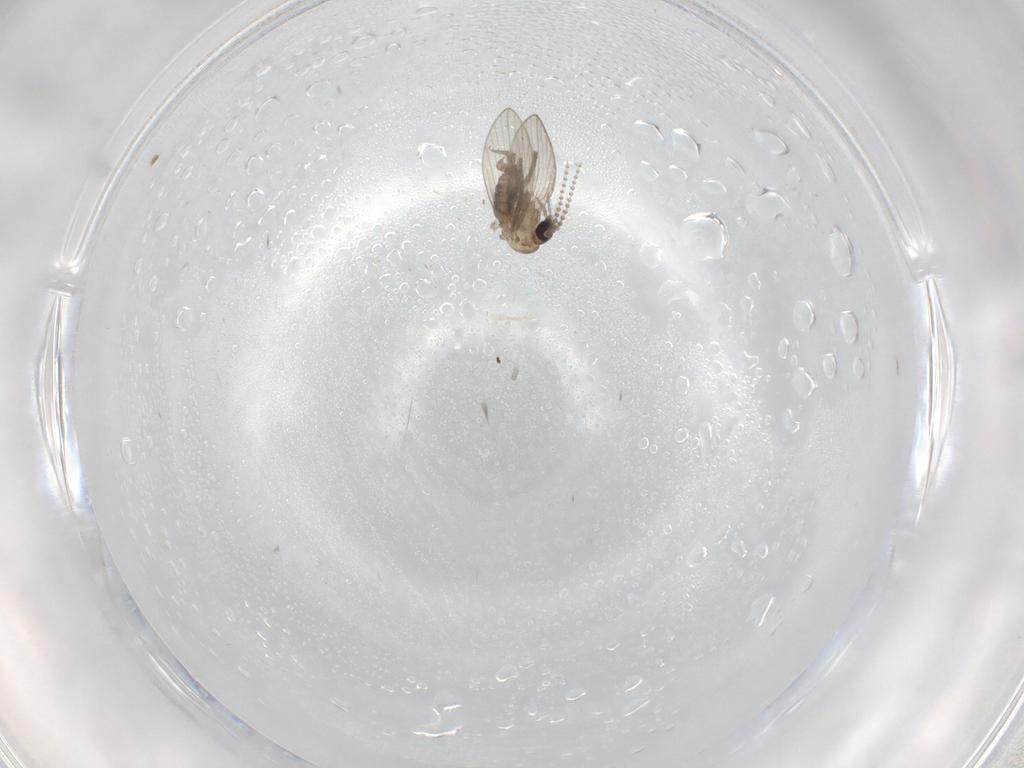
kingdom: Animalia
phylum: Arthropoda
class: Insecta
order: Diptera
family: Psychodidae
